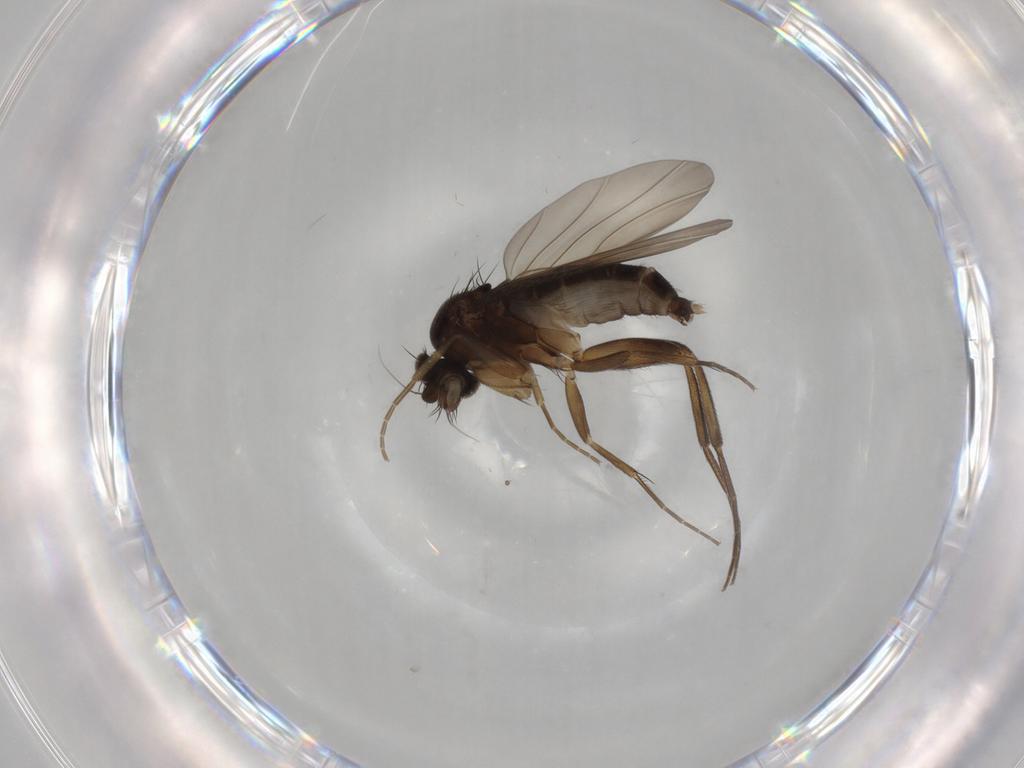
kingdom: Animalia
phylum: Arthropoda
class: Insecta
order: Diptera
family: Phoridae
